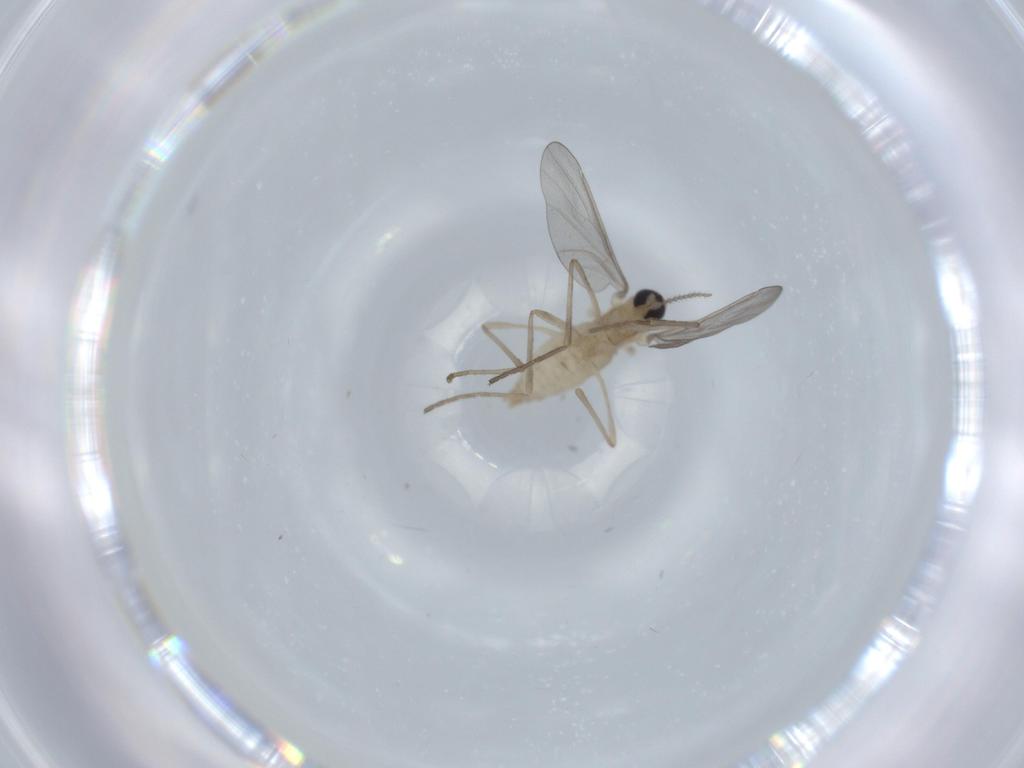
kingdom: Animalia
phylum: Arthropoda
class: Insecta
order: Diptera
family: Cecidomyiidae
